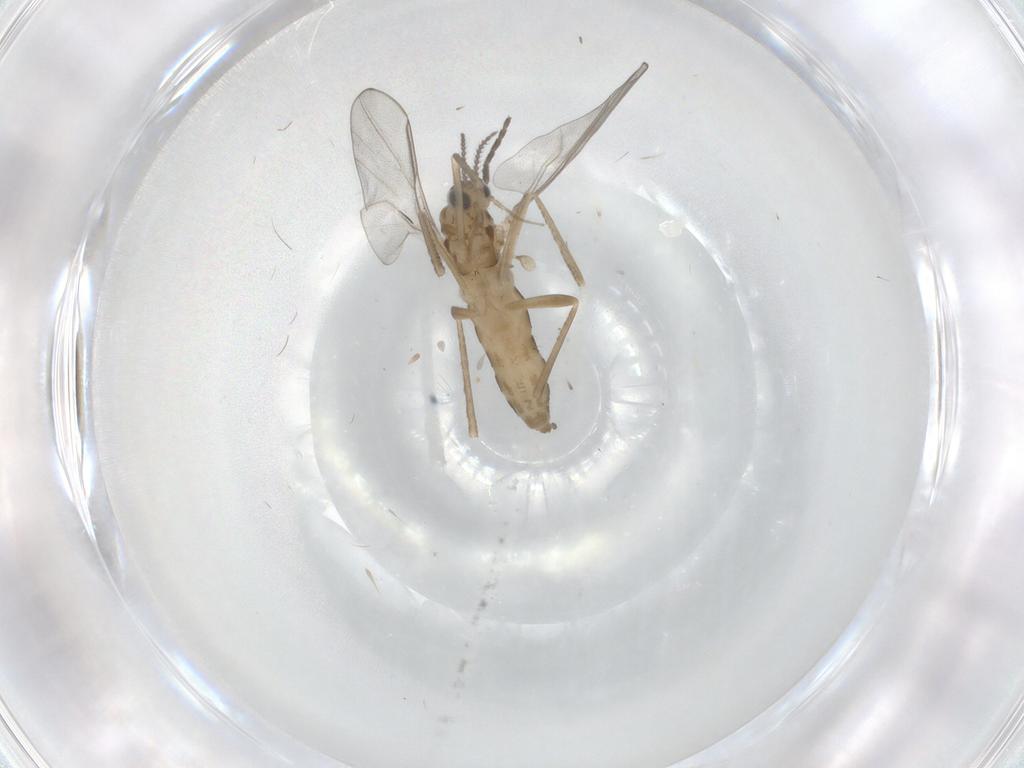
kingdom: Animalia
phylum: Arthropoda
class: Insecta
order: Diptera
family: Cecidomyiidae
